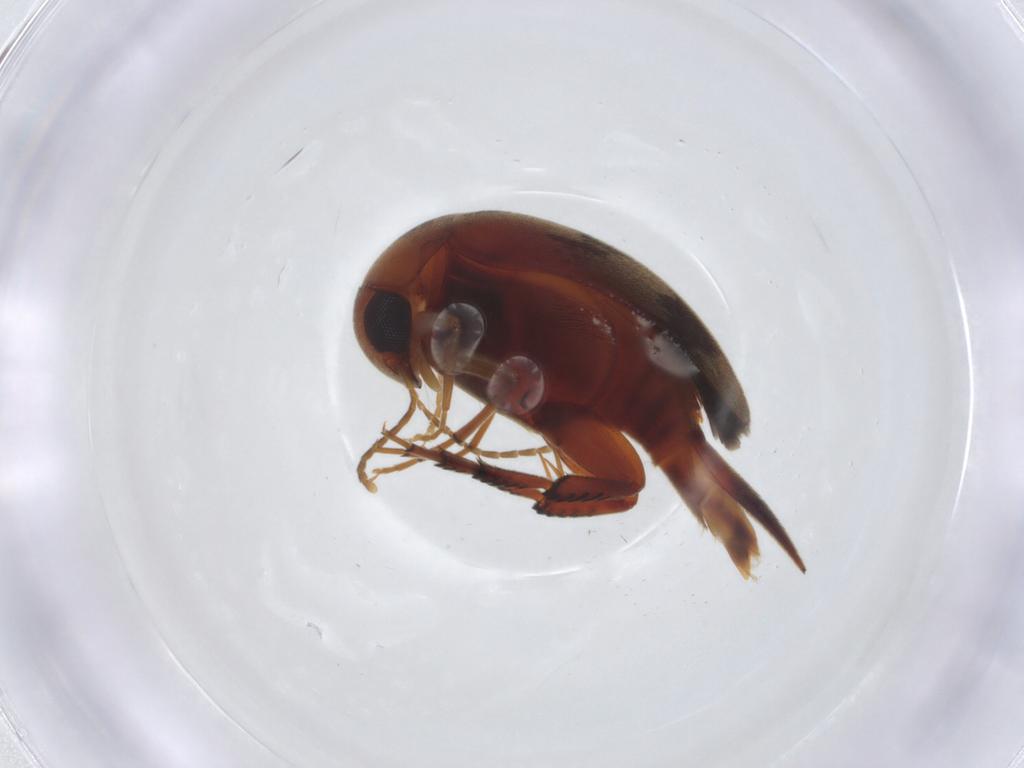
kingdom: Animalia
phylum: Arthropoda
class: Insecta
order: Coleoptera
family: Mordellidae
